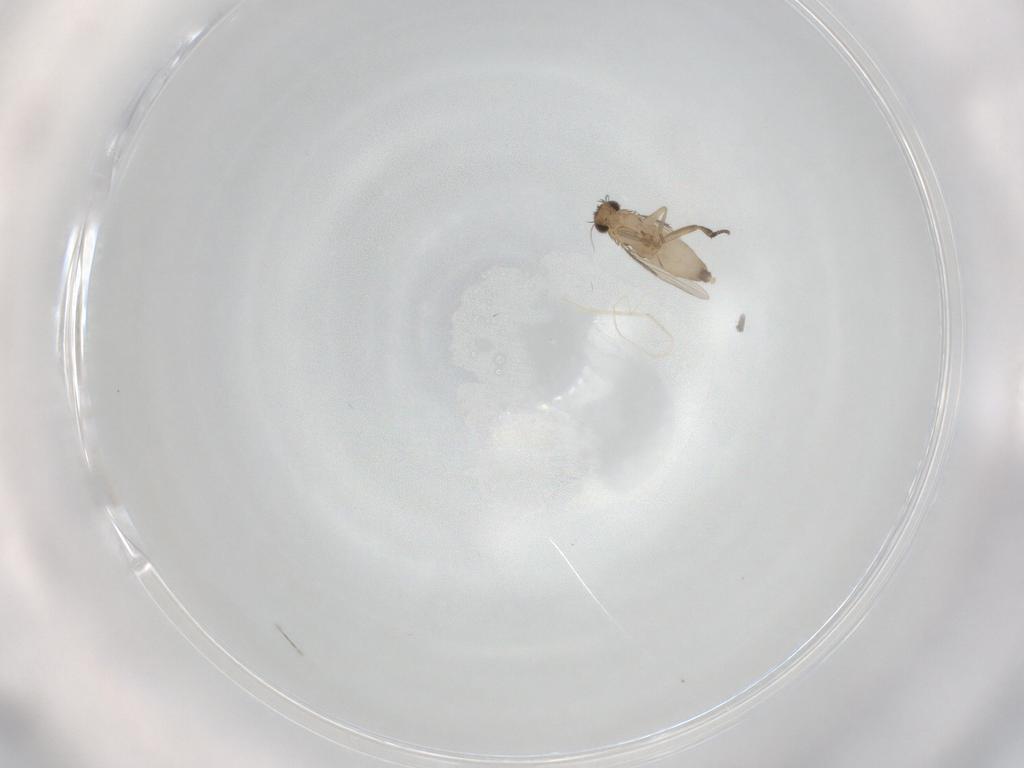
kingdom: Animalia
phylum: Arthropoda
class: Insecta
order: Diptera
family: Phoridae
